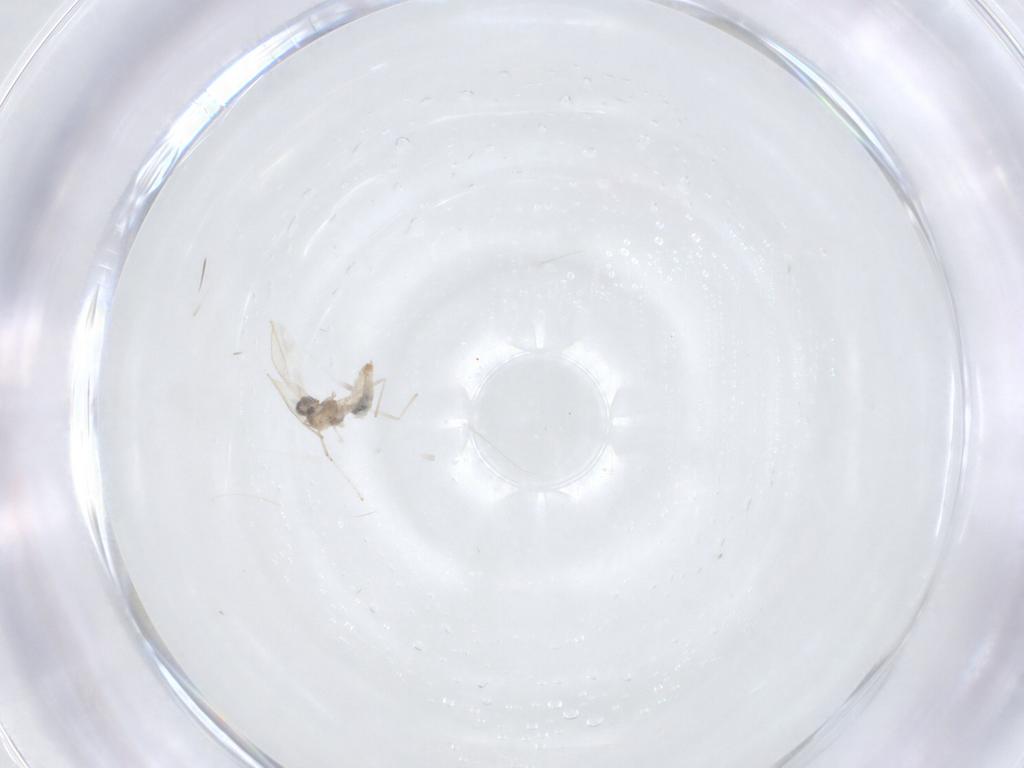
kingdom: Animalia
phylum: Arthropoda
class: Insecta
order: Diptera
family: Cecidomyiidae
